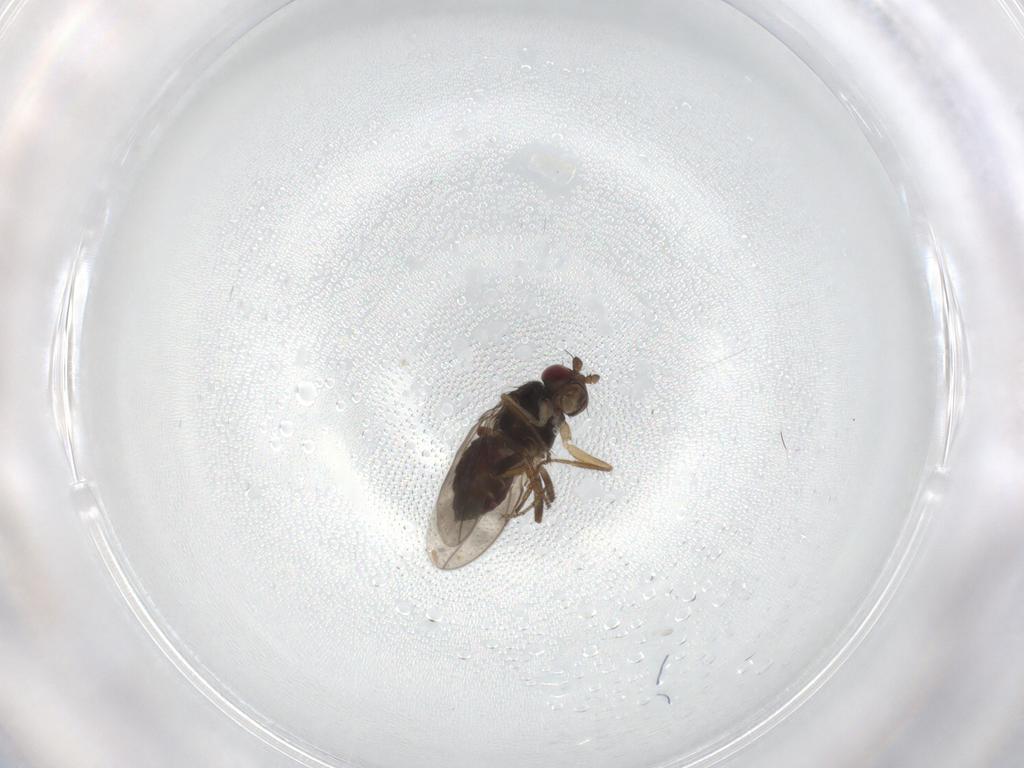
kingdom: Animalia
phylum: Arthropoda
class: Insecta
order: Diptera
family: Sphaeroceridae
